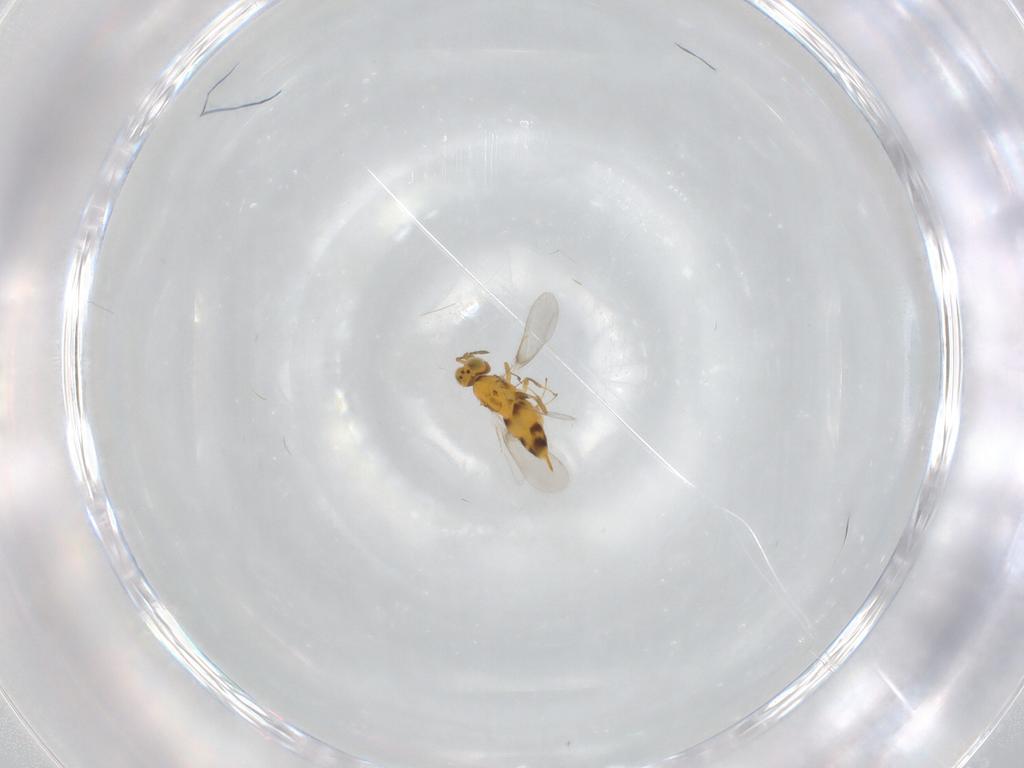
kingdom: Animalia
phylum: Arthropoda
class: Insecta
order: Hymenoptera
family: Aphelinidae
